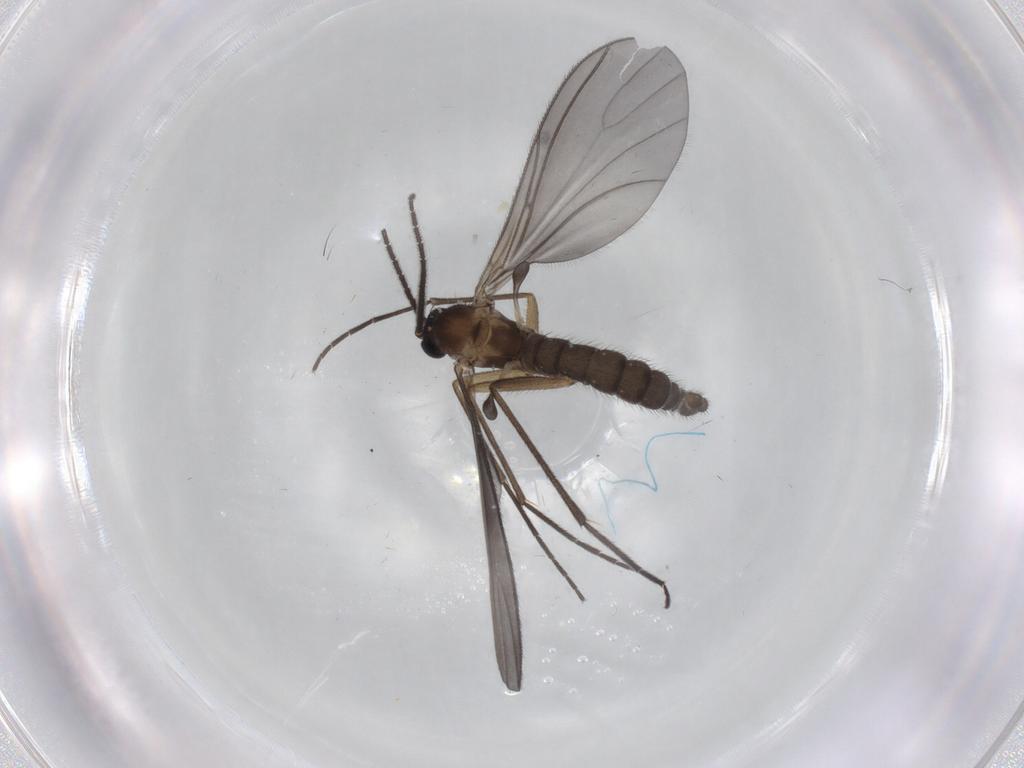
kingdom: Animalia
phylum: Arthropoda
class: Insecta
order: Diptera
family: Sciaridae
